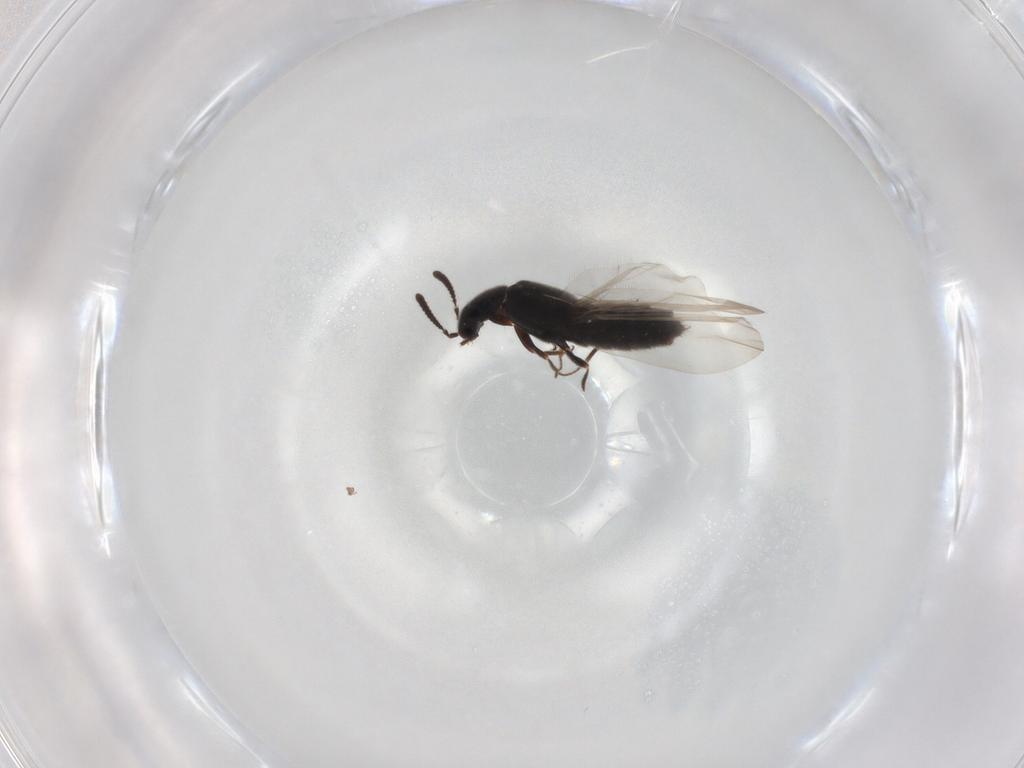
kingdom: Animalia
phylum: Arthropoda
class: Insecta
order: Coleoptera
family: Staphylinidae
